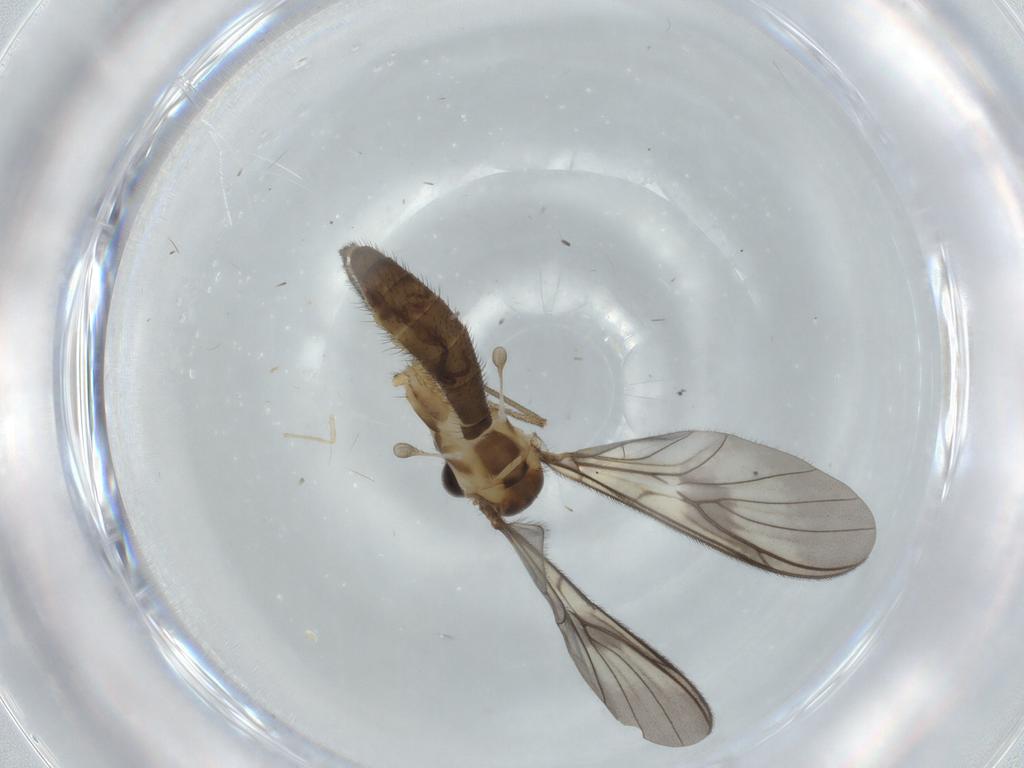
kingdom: Animalia
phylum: Arthropoda
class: Insecta
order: Diptera
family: Keroplatidae
